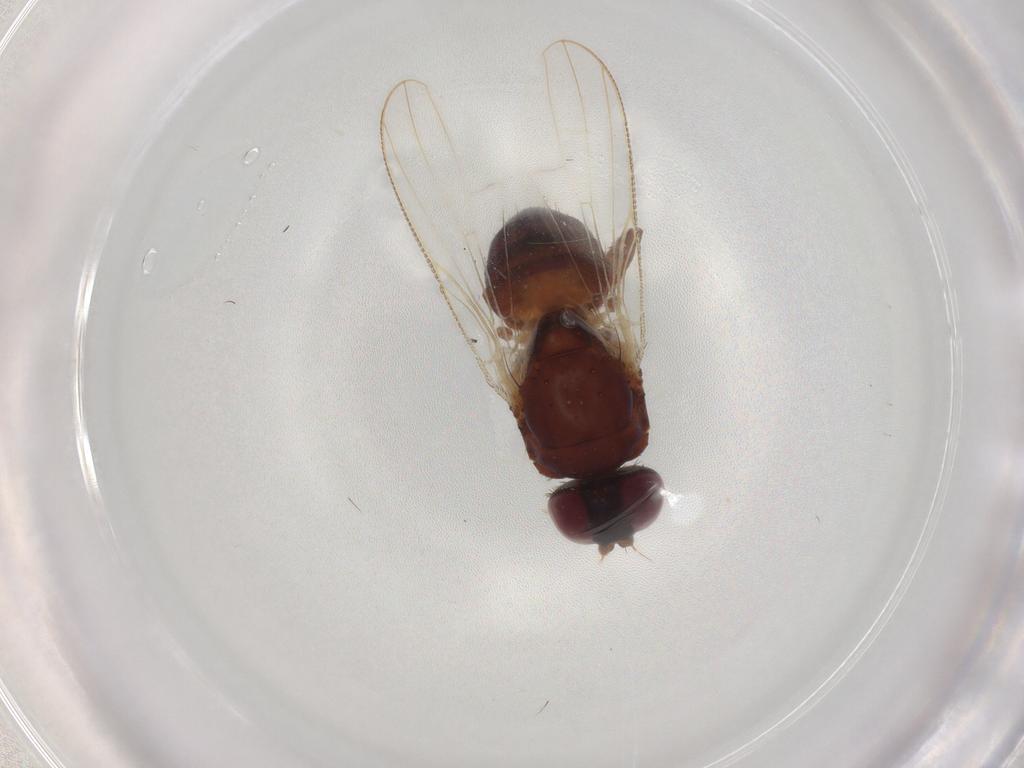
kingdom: Animalia
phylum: Arthropoda
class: Insecta
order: Diptera
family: Anthomyiidae
